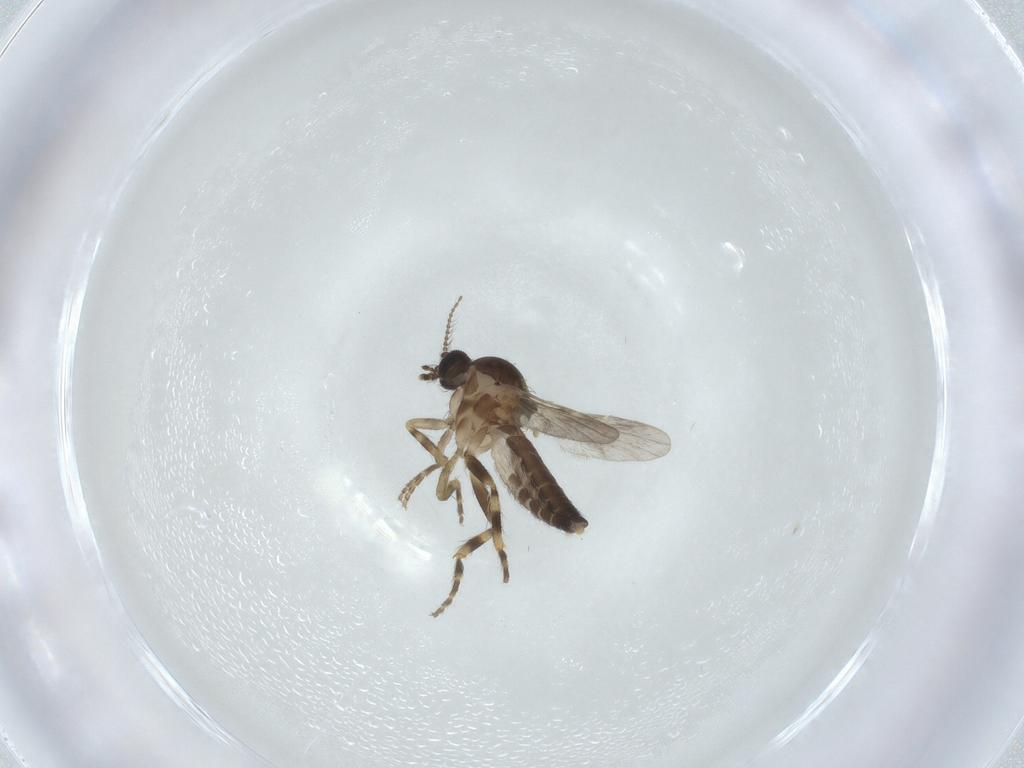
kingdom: Animalia
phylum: Arthropoda
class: Insecta
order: Diptera
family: Ceratopogonidae
